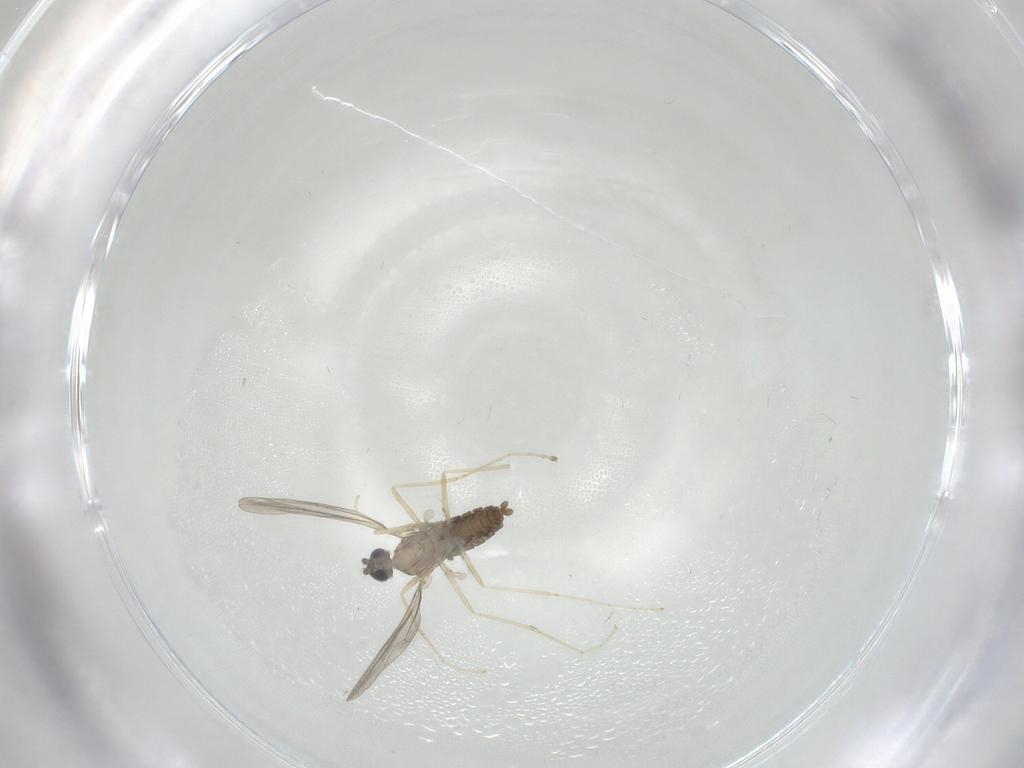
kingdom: Animalia
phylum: Arthropoda
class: Insecta
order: Diptera
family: Cecidomyiidae
